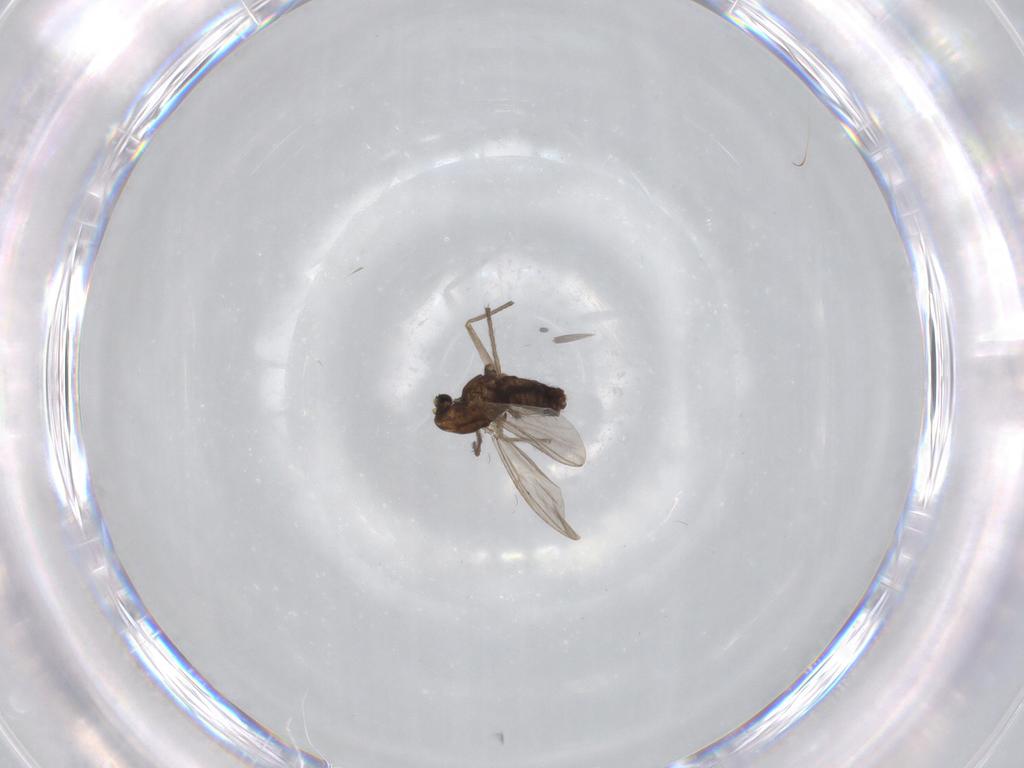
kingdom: Animalia
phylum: Arthropoda
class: Insecta
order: Diptera
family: Chironomidae
